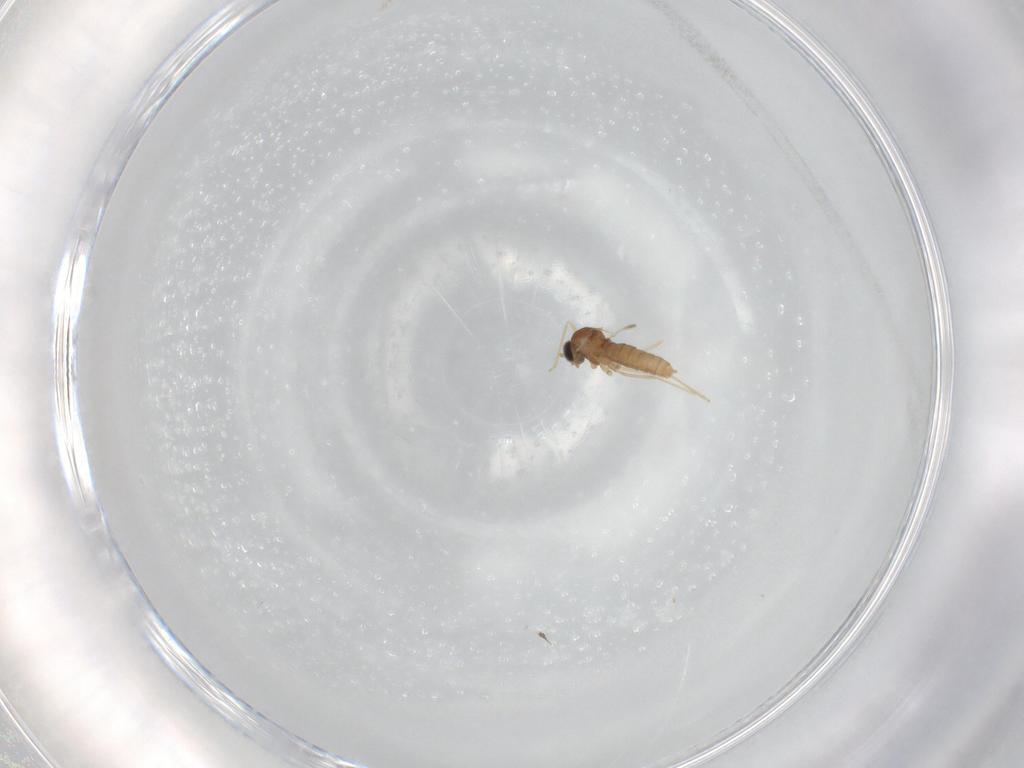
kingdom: Animalia
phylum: Arthropoda
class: Insecta
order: Diptera
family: Cecidomyiidae
